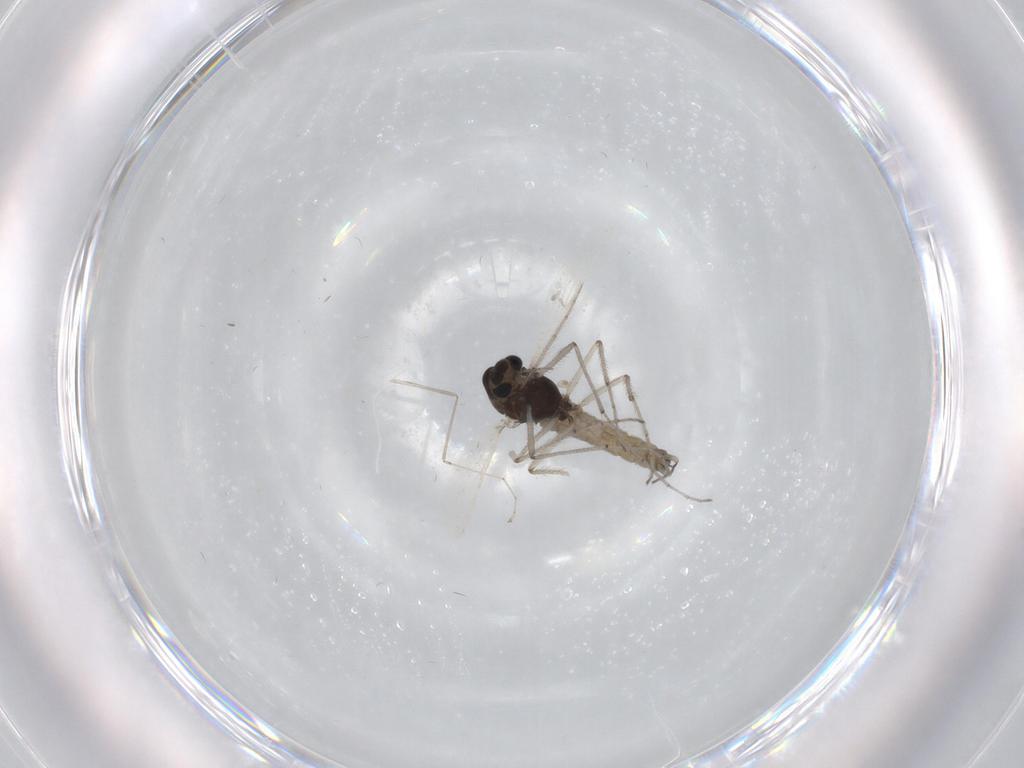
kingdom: Animalia
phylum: Arthropoda
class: Insecta
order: Diptera
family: Chironomidae
